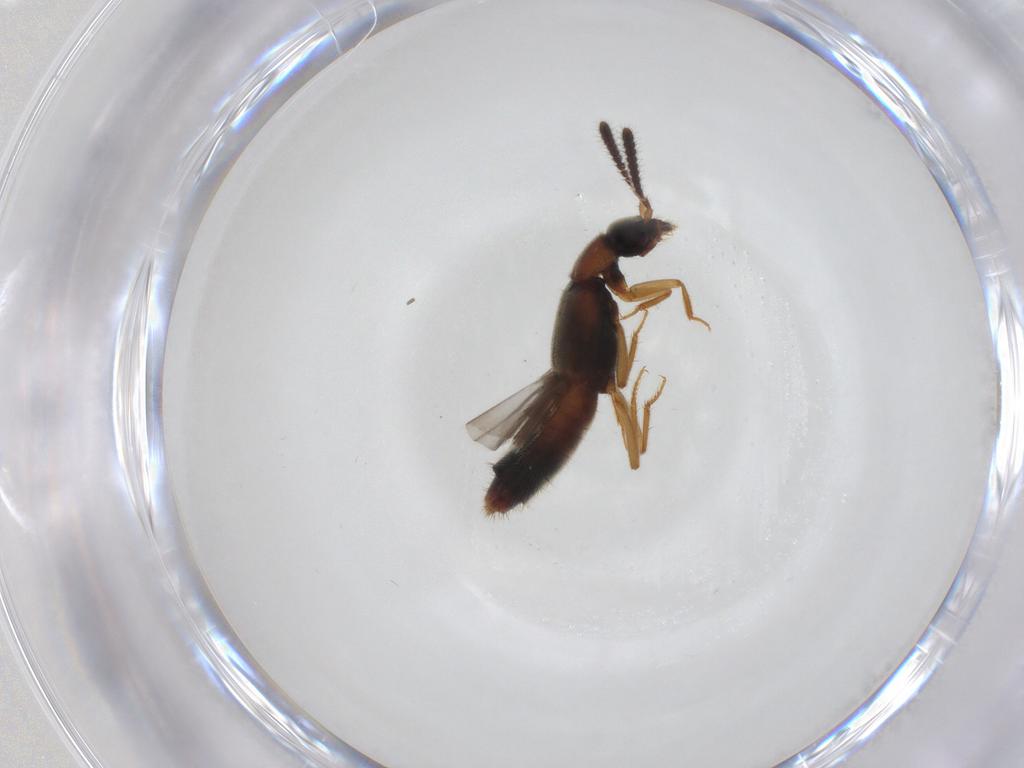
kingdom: Animalia
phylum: Arthropoda
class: Insecta
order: Coleoptera
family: Staphylinidae
